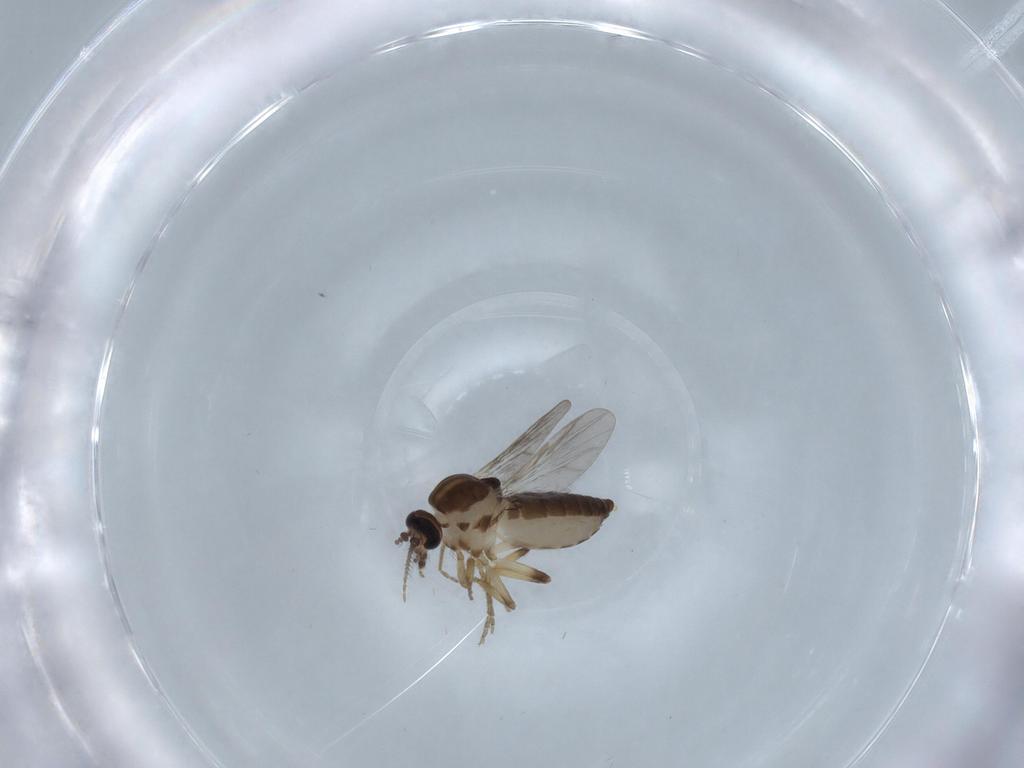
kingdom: Animalia
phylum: Arthropoda
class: Insecta
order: Diptera
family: Ceratopogonidae
